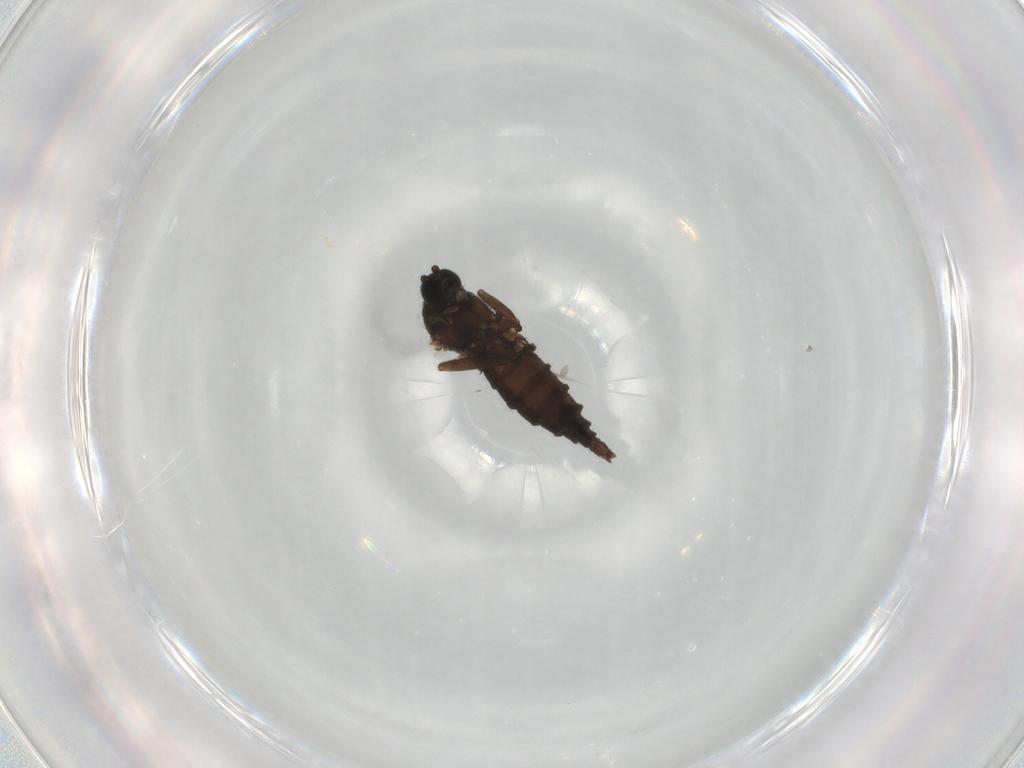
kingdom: Animalia
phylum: Arthropoda
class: Insecta
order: Diptera
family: Sciaridae
